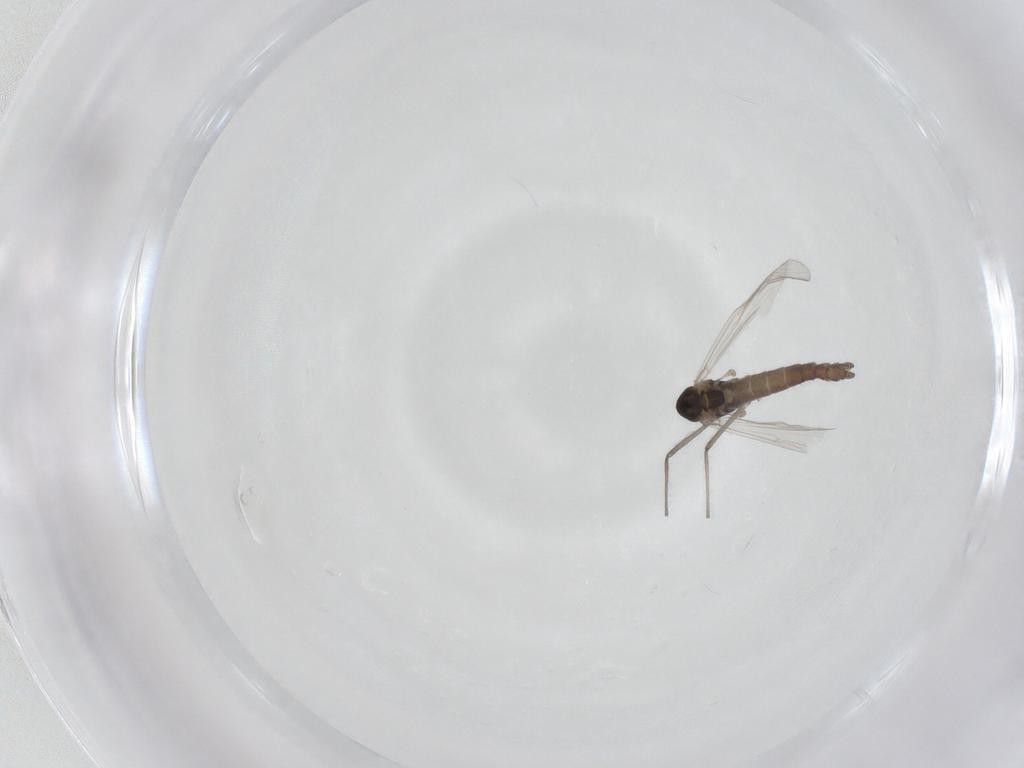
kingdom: Animalia
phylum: Arthropoda
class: Insecta
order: Diptera
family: Chironomidae
